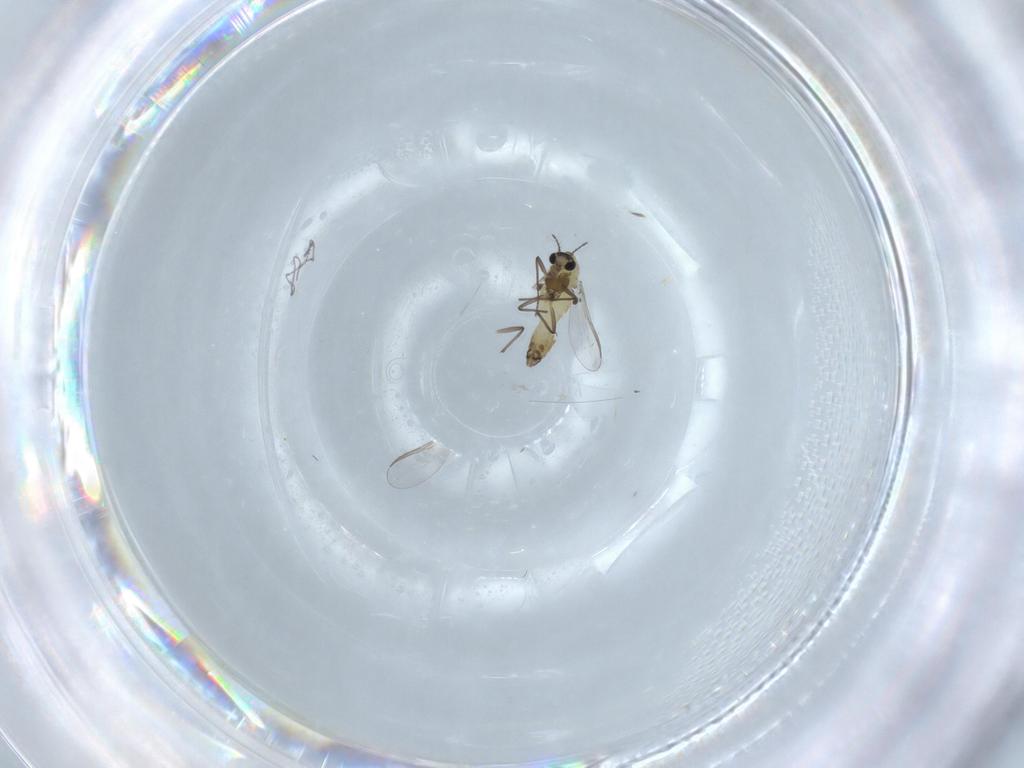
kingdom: Animalia
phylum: Arthropoda
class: Insecta
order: Diptera
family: Chironomidae
